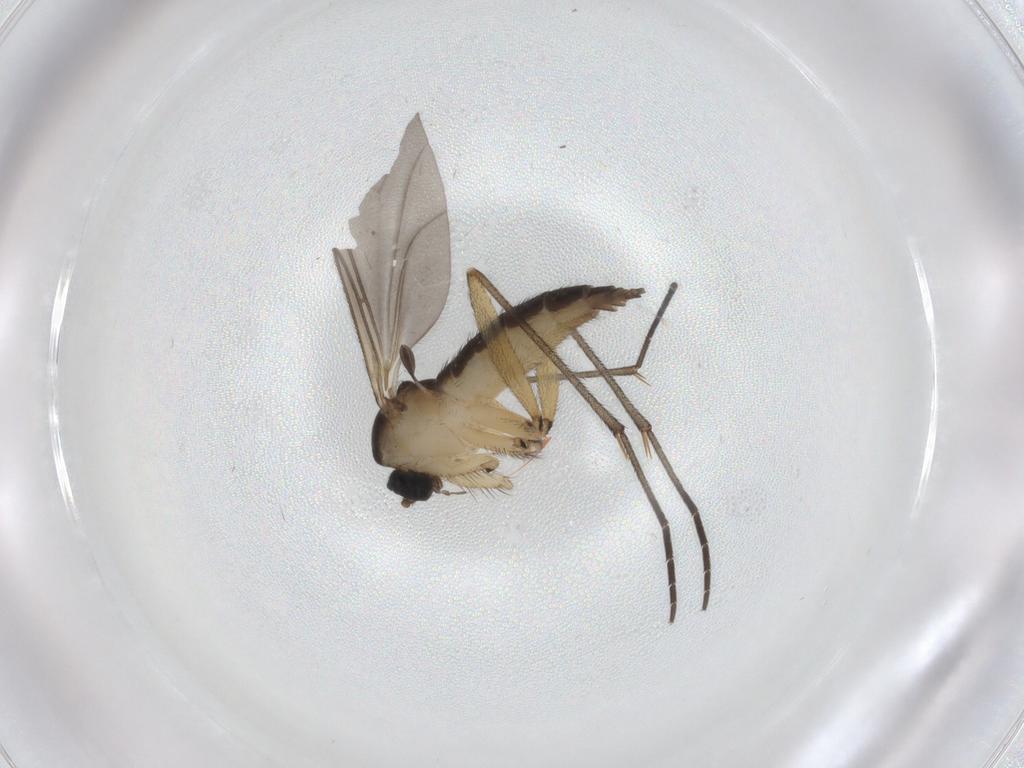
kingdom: Animalia
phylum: Arthropoda
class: Insecta
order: Diptera
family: Sciaridae
